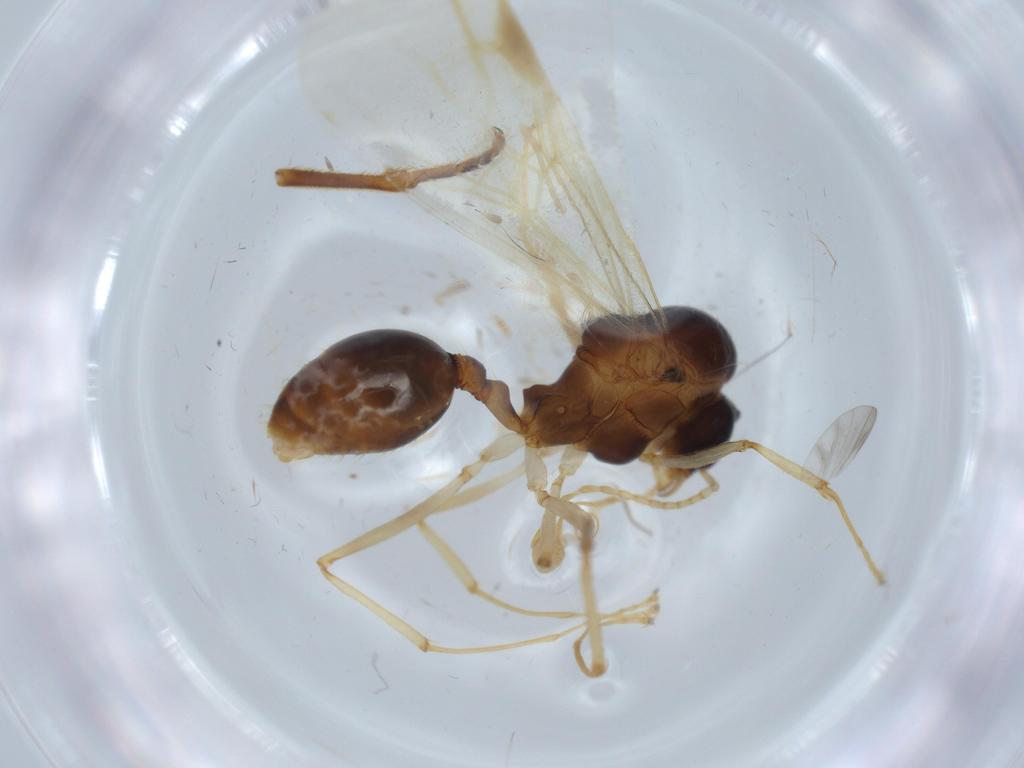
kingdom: Animalia
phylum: Arthropoda
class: Insecta
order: Hymenoptera
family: Formicidae
